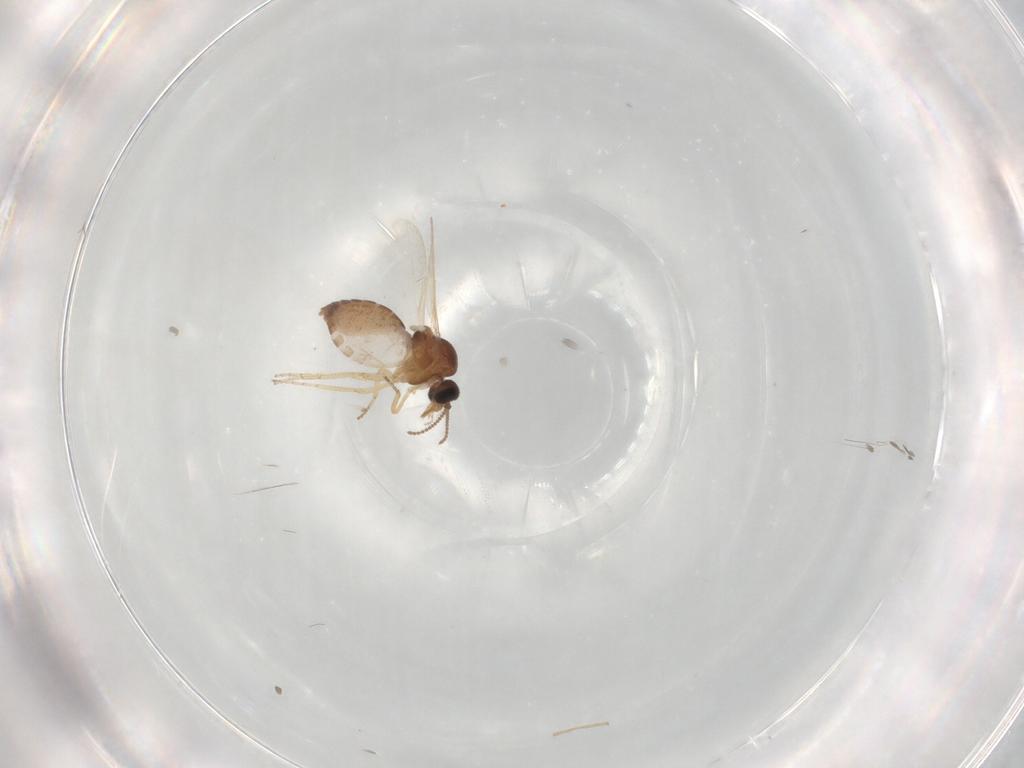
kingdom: Animalia
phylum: Arthropoda
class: Insecta
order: Diptera
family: Ceratopogonidae
